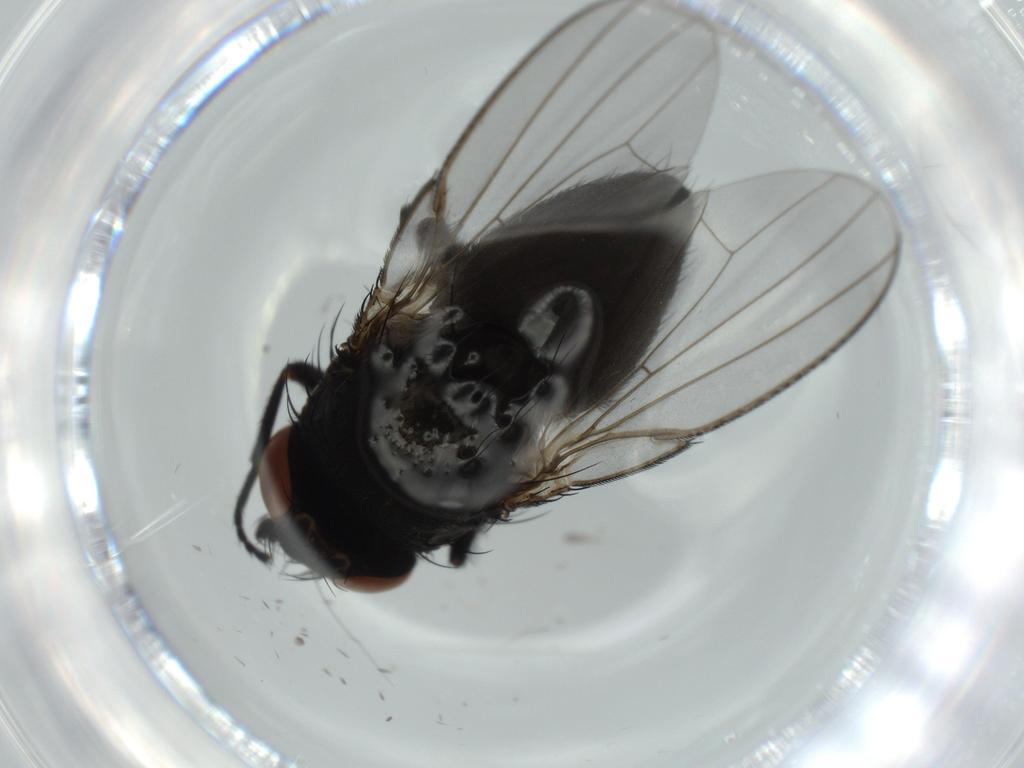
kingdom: Animalia
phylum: Arthropoda
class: Insecta
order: Diptera
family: Milichiidae
